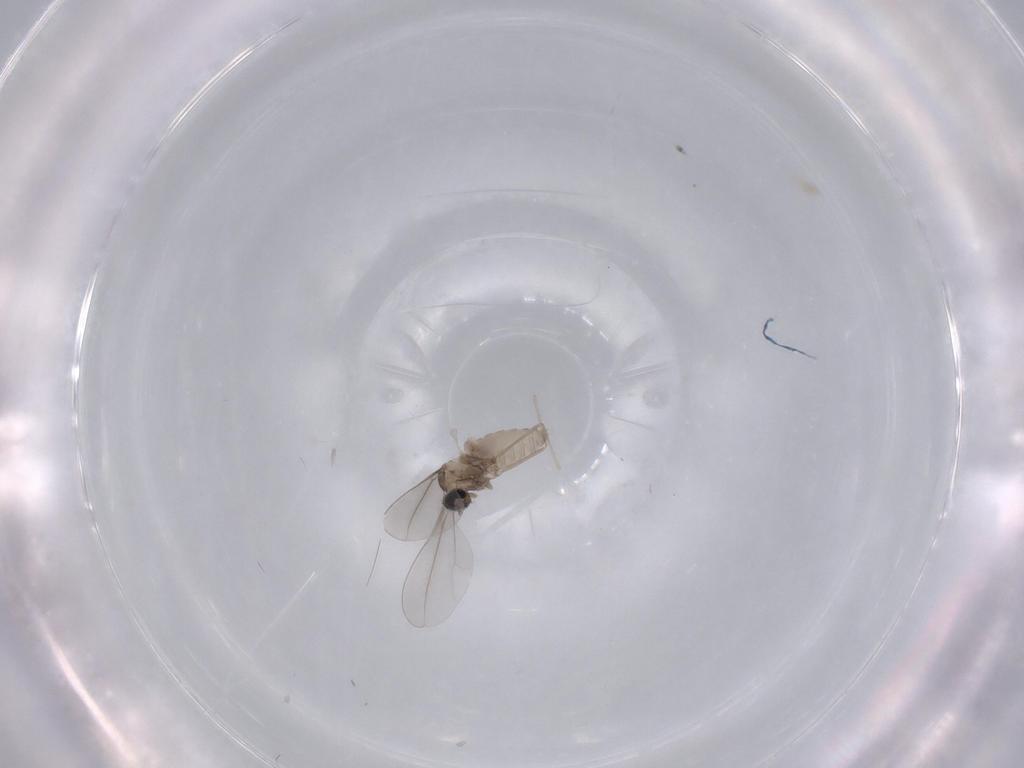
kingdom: Animalia
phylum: Arthropoda
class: Insecta
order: Diptera
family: Cecidomyiidae
